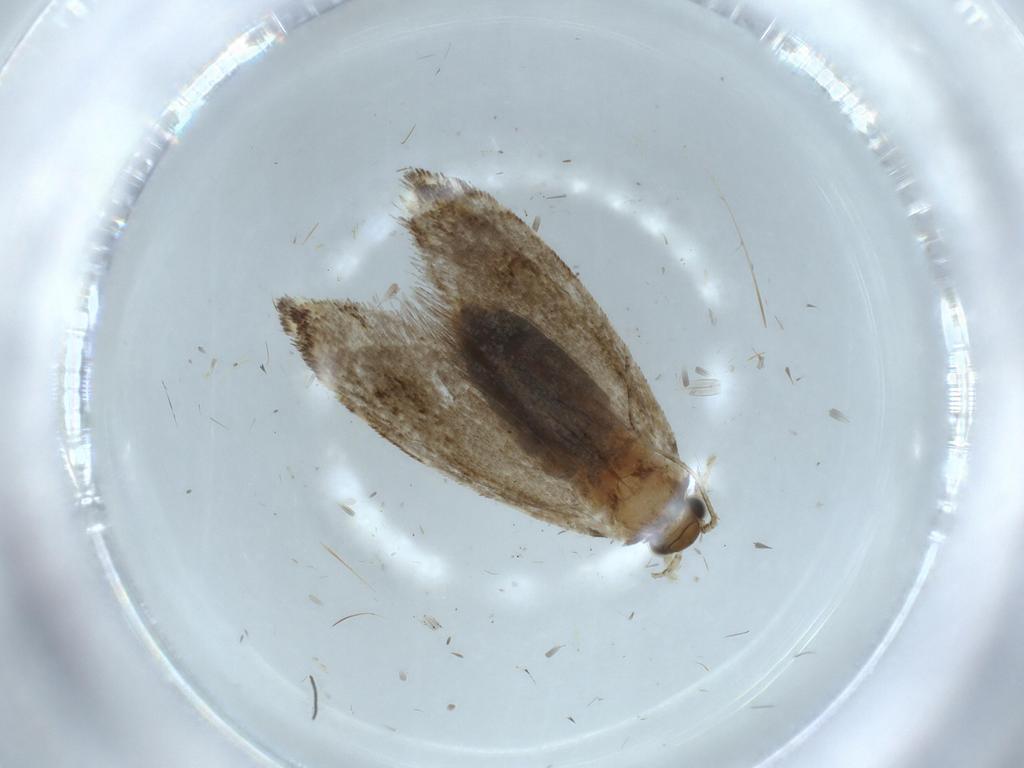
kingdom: Animalia
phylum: Arthropoda
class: Insecta
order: Lepidoptera
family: Tineidae
